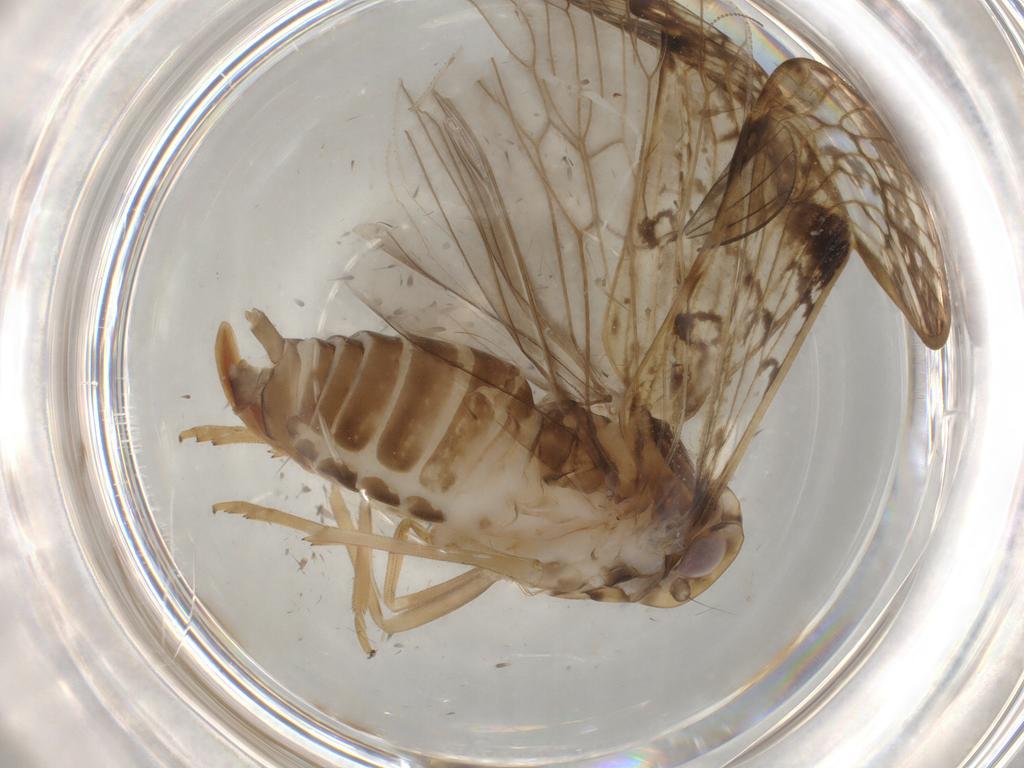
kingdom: Animalia
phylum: Arthropoda
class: Insecta
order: Hemiptera
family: Cixiidae
